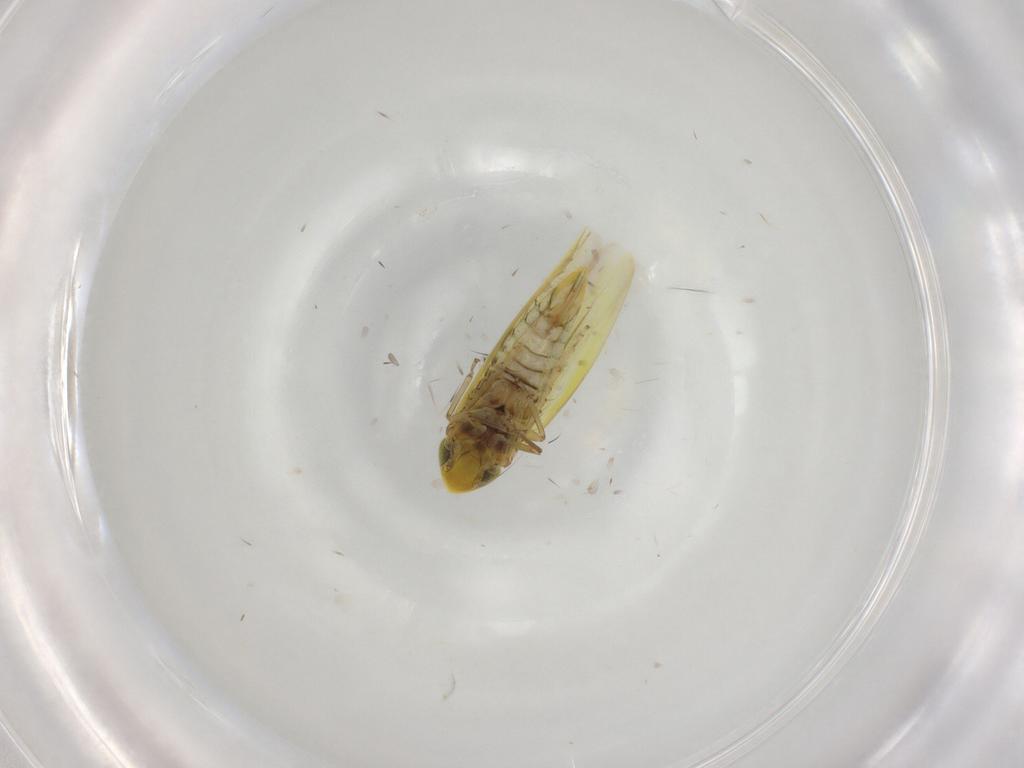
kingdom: Animalia
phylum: Arthropoda
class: Insecta
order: Hemiptera
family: Cicadellidae
